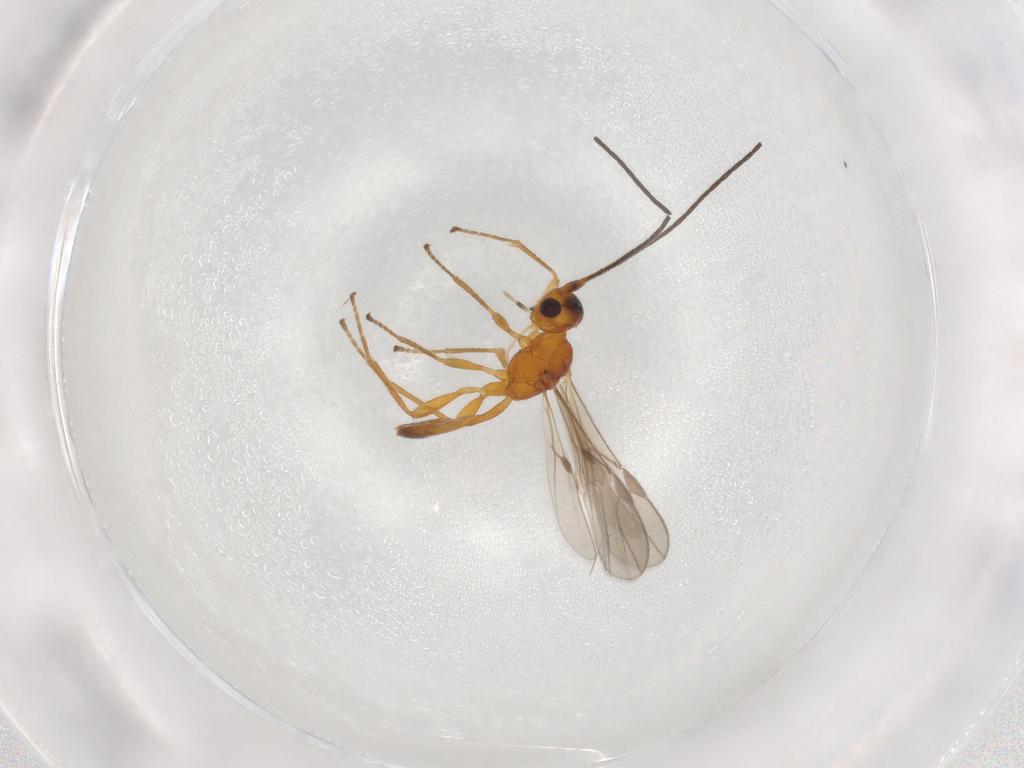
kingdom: Animalia
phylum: Arthropoda
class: Insecta
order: Hymenoptera
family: Braconidae
